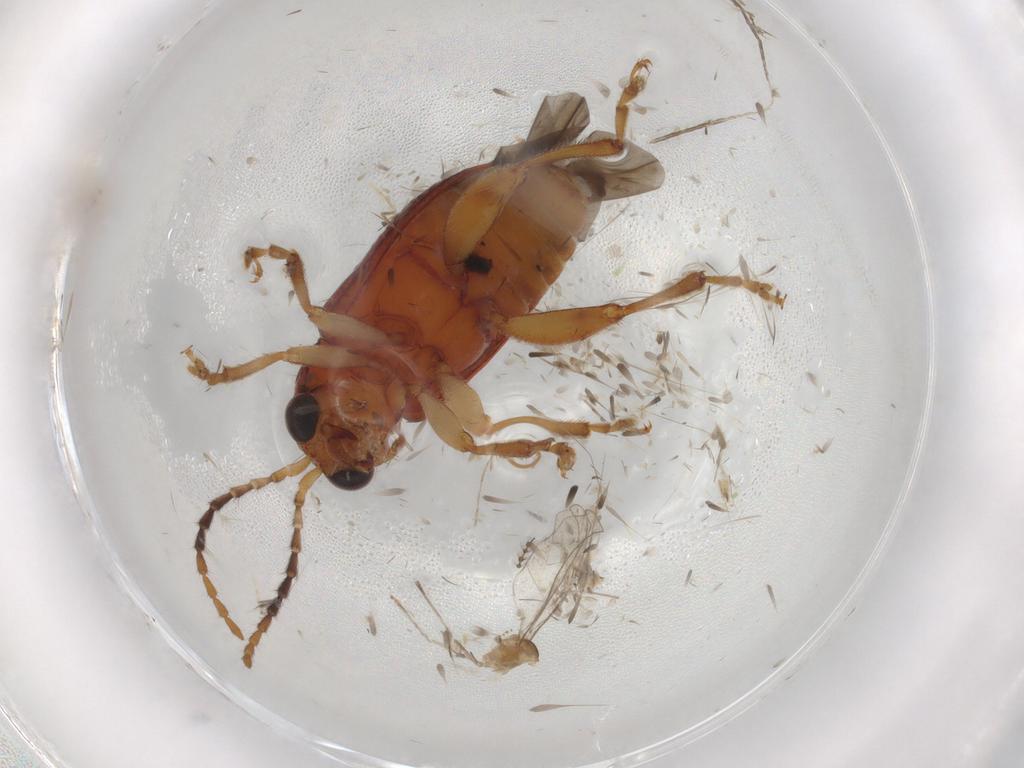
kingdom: Animalia
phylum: Arthropoda
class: Insecta
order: Coleoptera
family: Chrysomelidae
